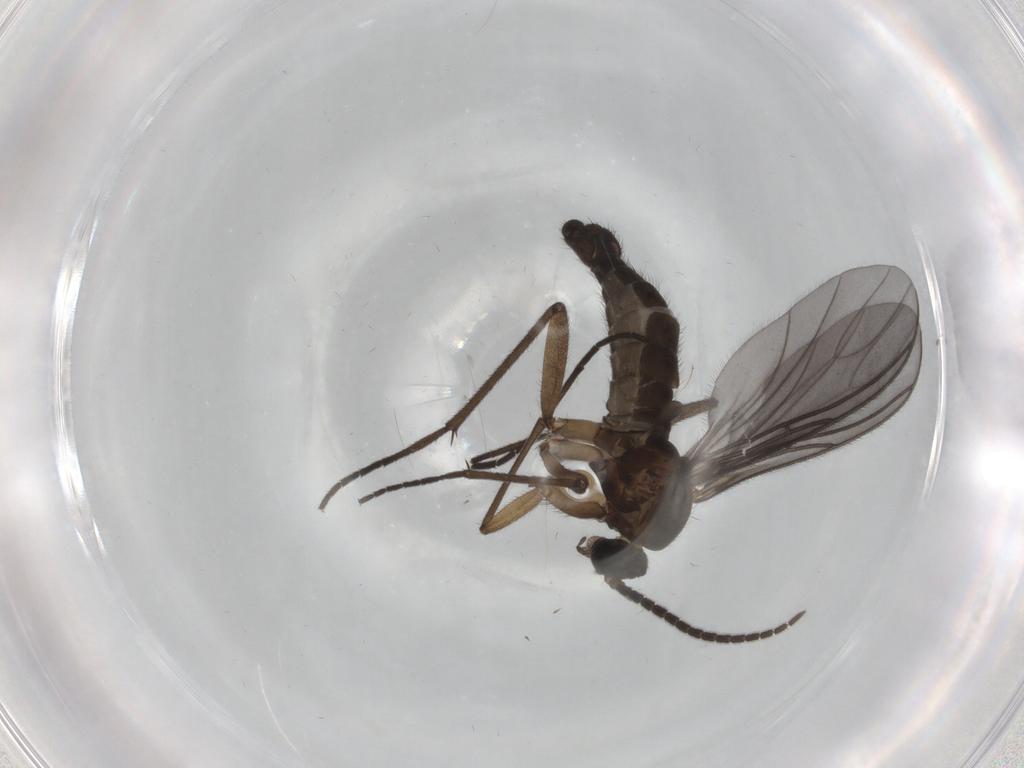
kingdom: Animalia
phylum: Arthropoda
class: Insecta
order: Diptera
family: Sciaridae
